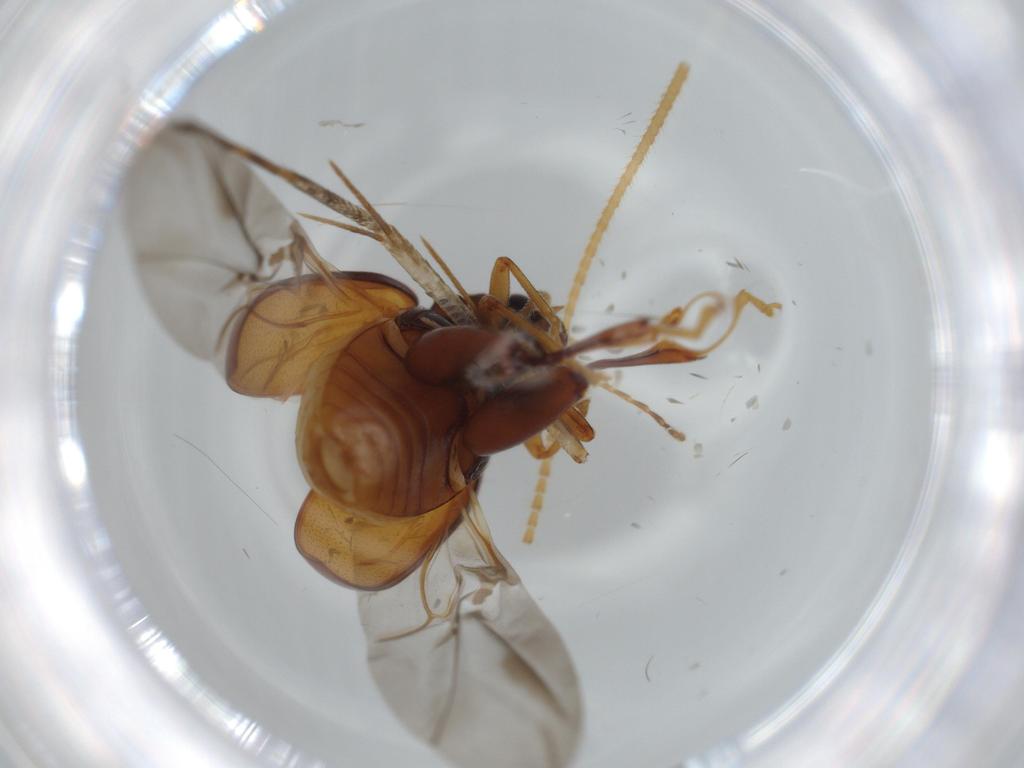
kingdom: Animalia
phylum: Arthropoda
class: Insecta
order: Coleoptera
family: Chrysomelidae
